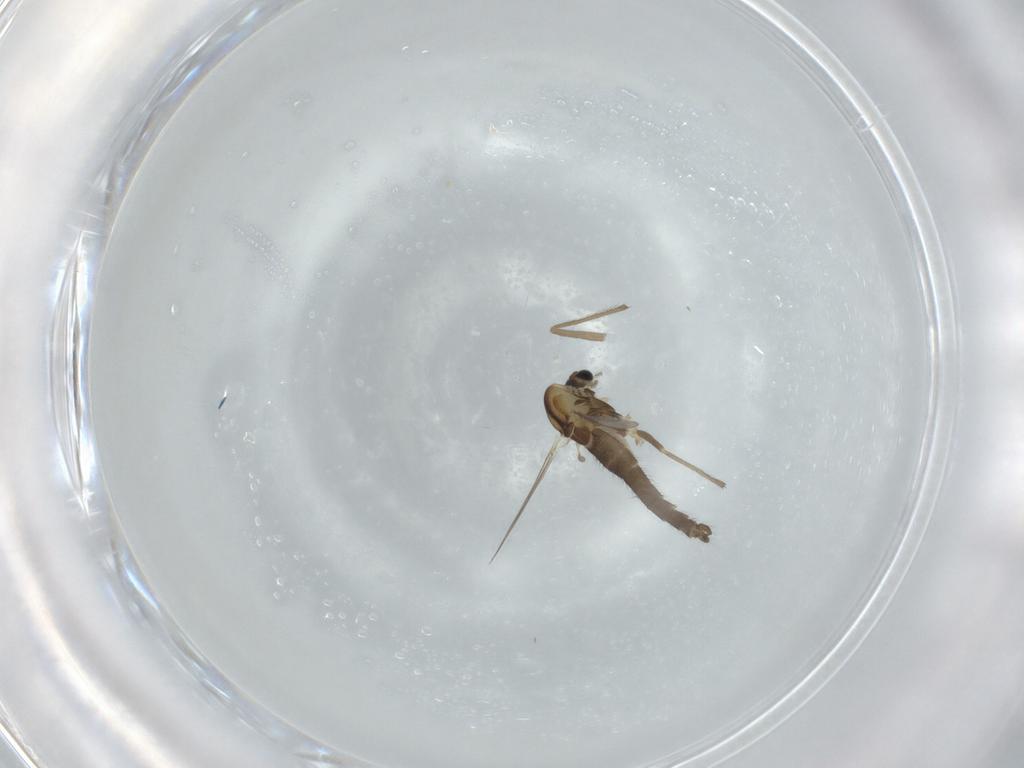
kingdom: Animalia
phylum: Arthropoda
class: Insecta
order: Diptera
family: Chironomidae
